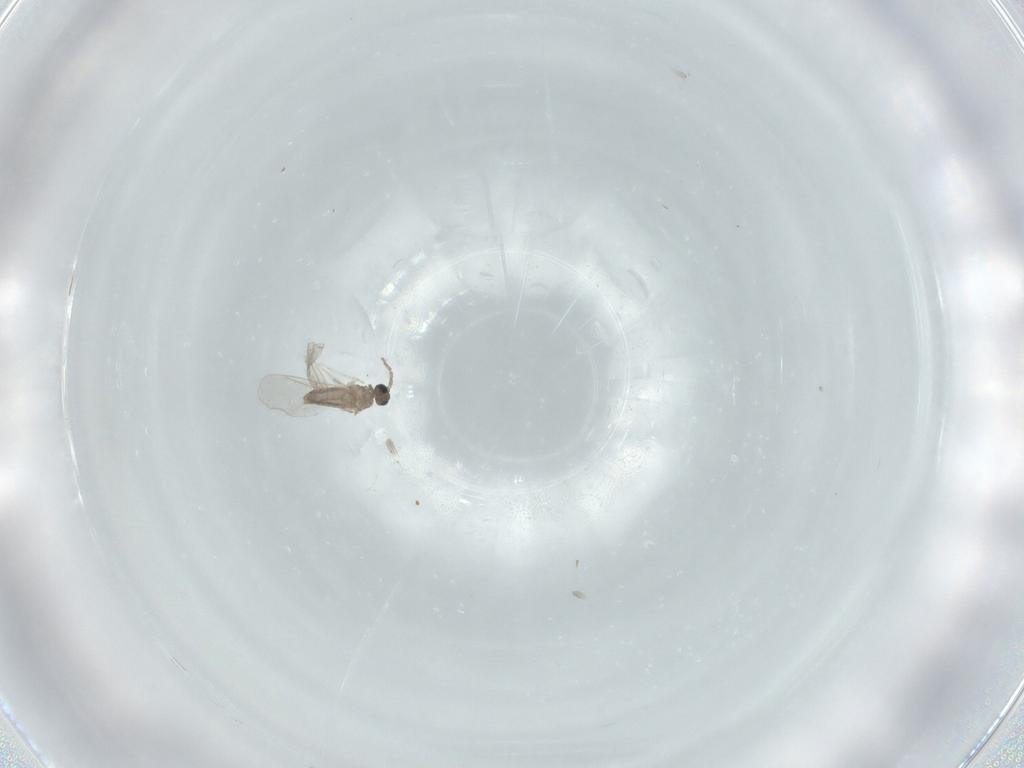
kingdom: Animalia
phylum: Arthropoda
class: Insecta
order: Diptera
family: Cecidomyiidae
